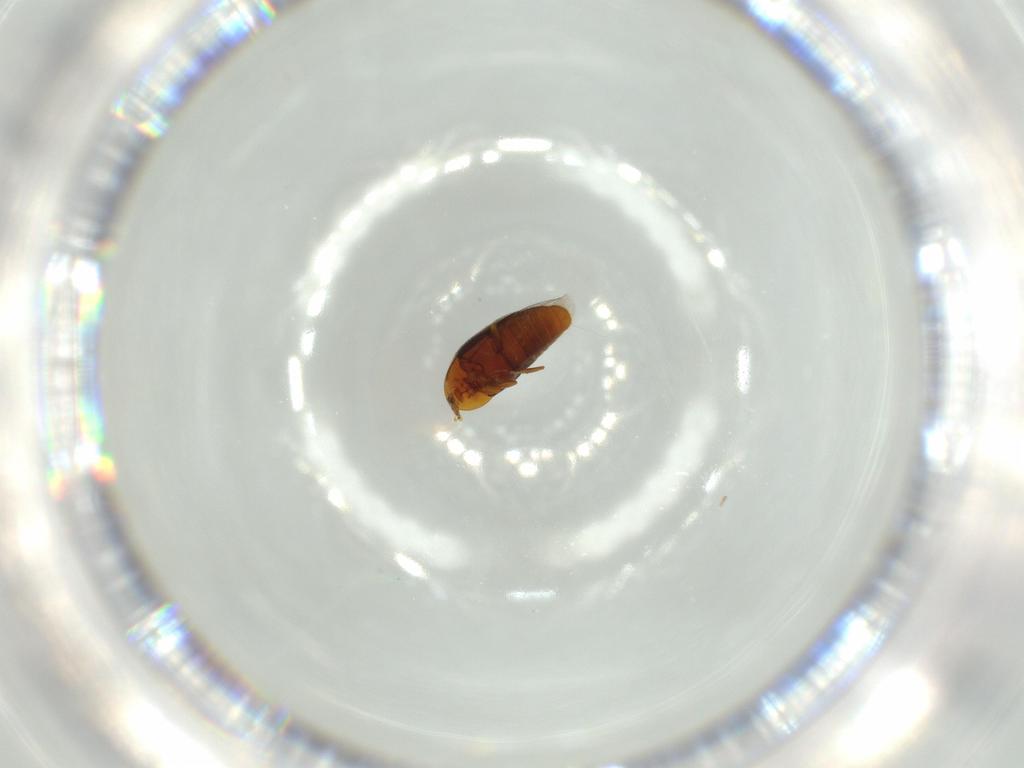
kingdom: Animalia
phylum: Arthropoda
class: Insecta
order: Coleoptera
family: Corylophidae
